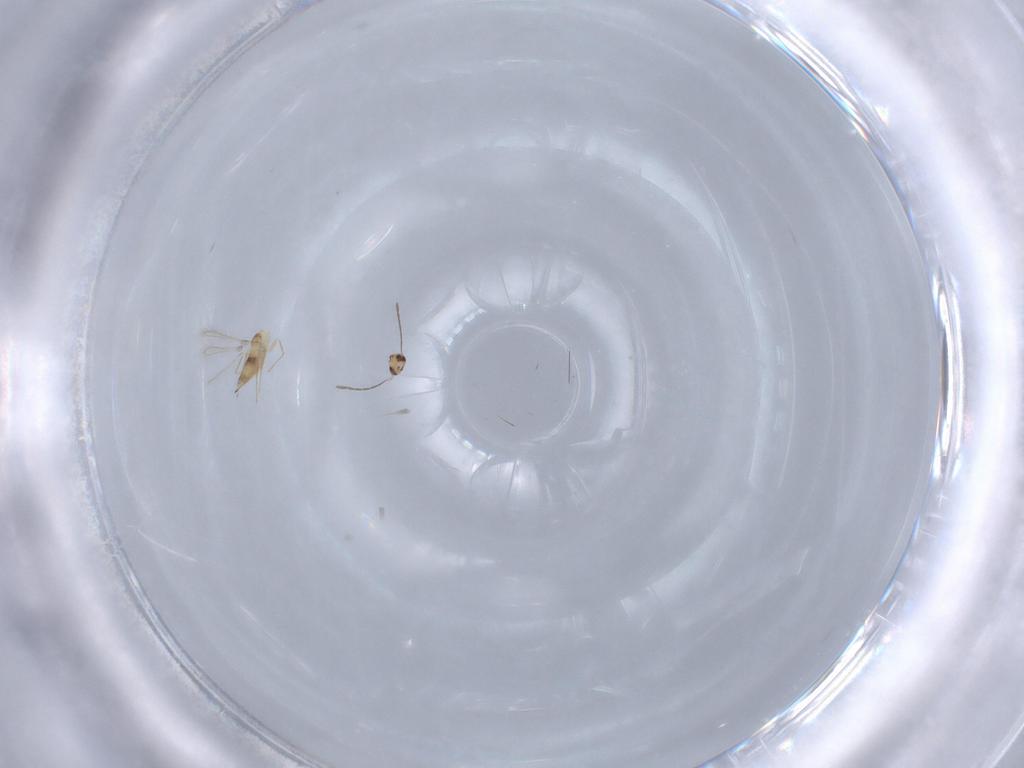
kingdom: Animalia
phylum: Arthropoda
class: Insecta
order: Hymenoptera
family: Mymaridae
